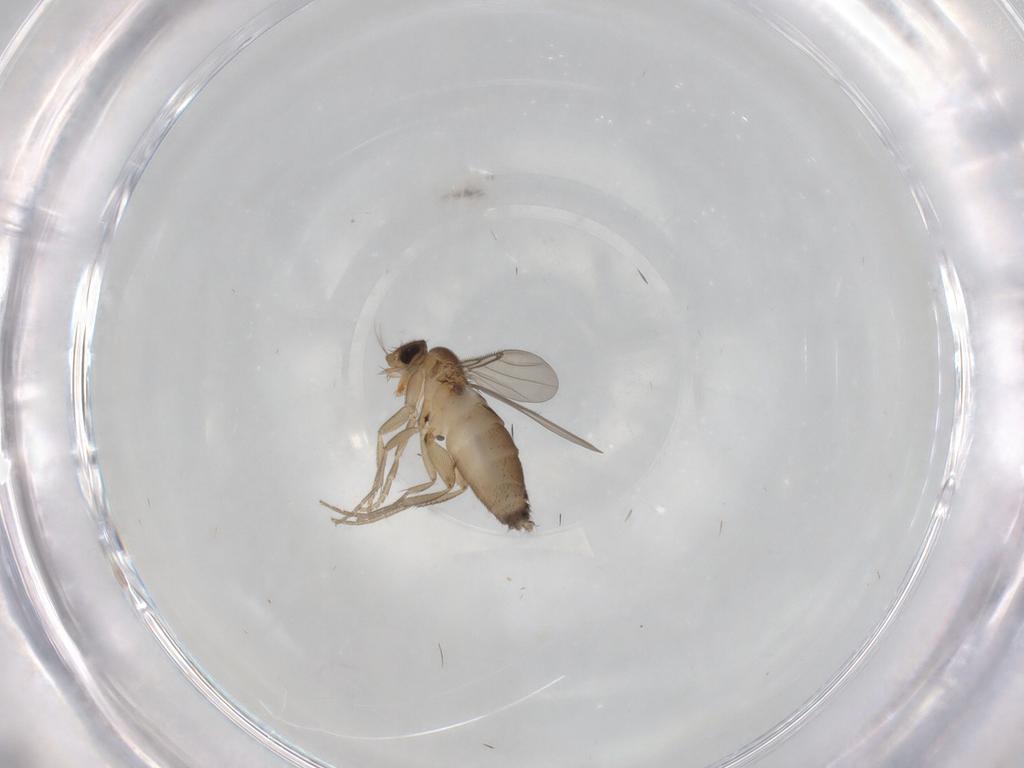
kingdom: Animalia
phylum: Arthropoda
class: Insecta
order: Diptera
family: Phoridae
